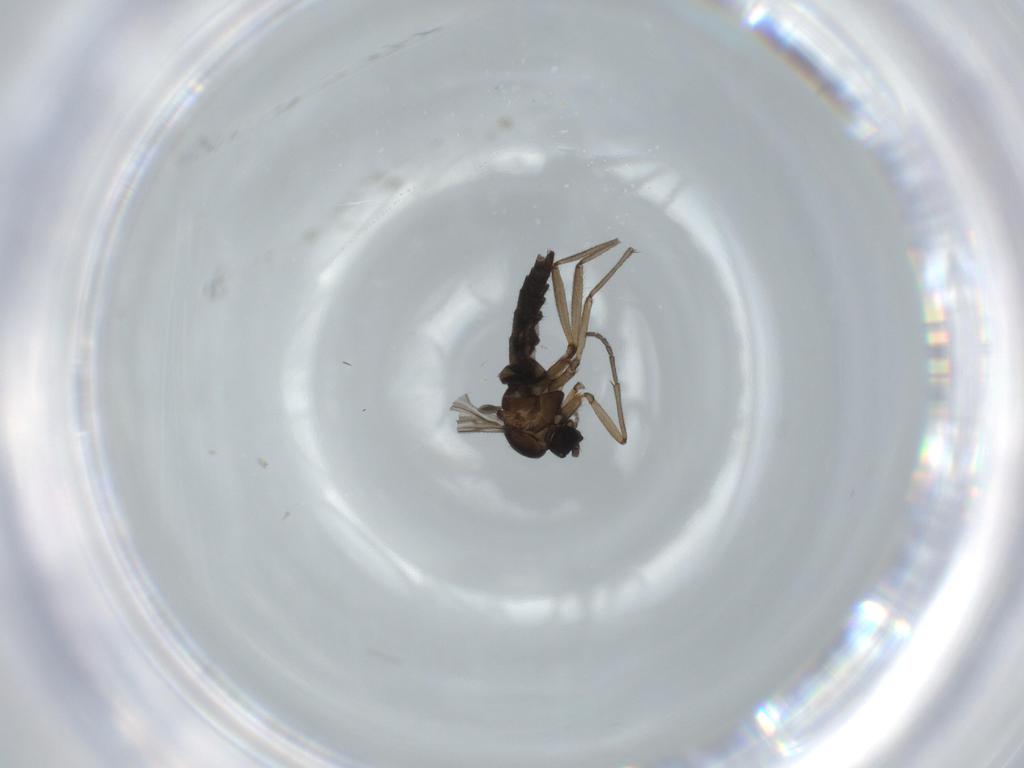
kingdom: Animalia
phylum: Arthropoda
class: Insecta
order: Diptera
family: Sciaridae
